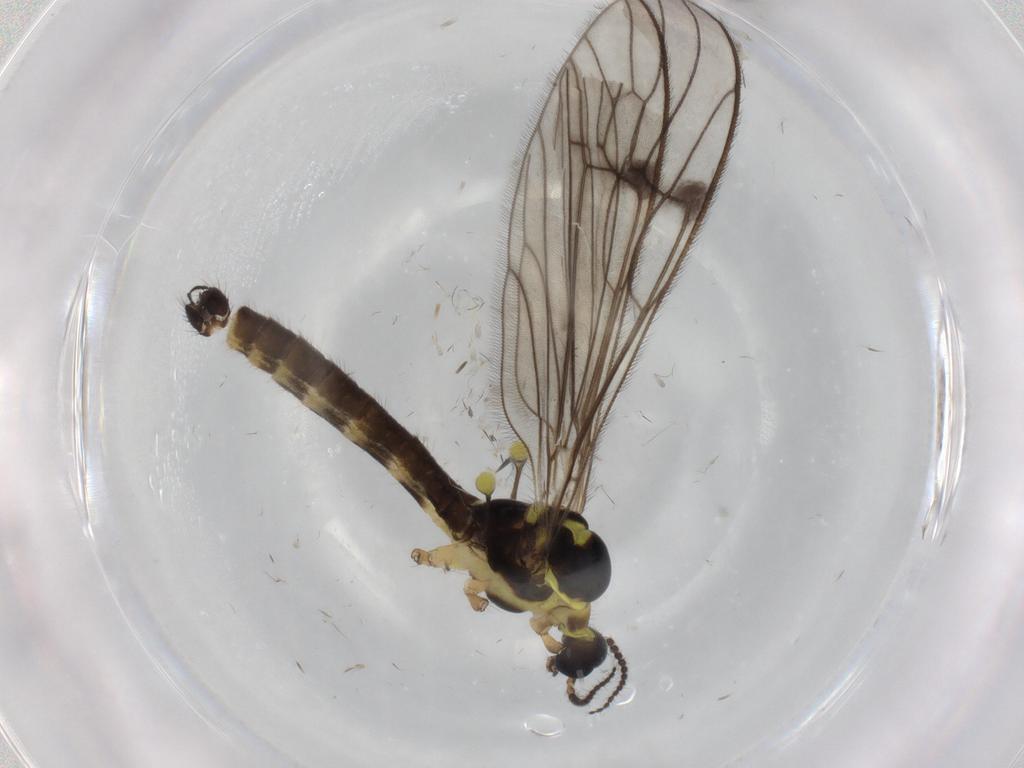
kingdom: Animalia
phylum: Arthropoda
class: Insecta
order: Diptera
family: Limoniidae
